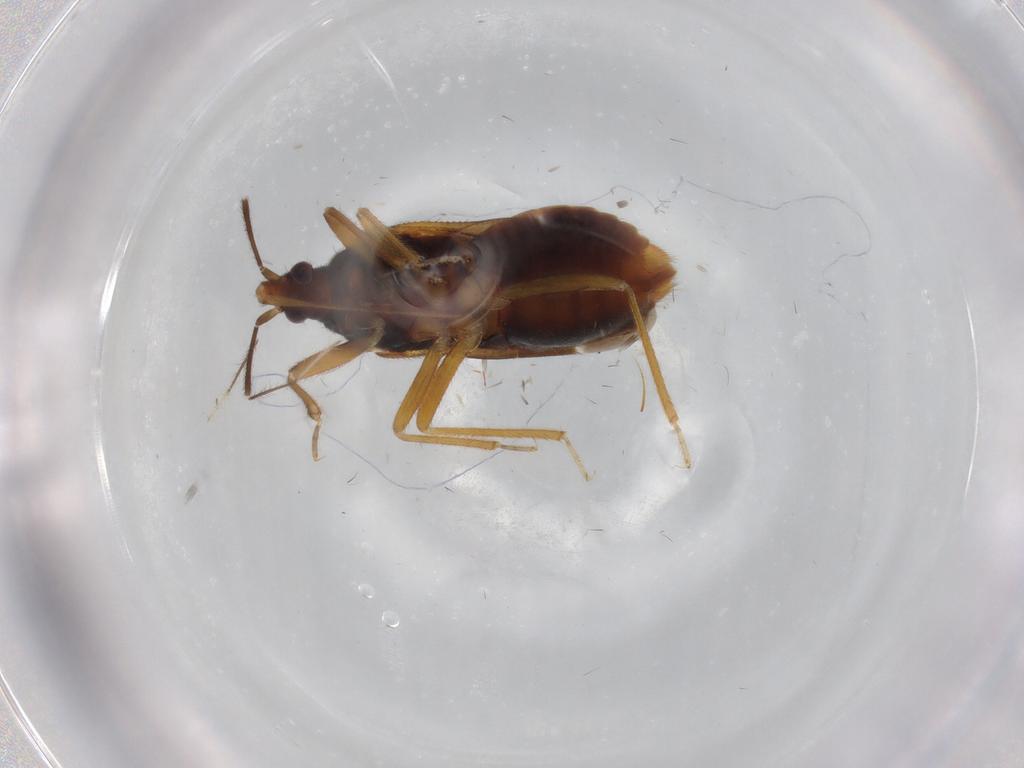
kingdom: Animalia
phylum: Arthropoda
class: Insecta
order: Hemiptera
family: Anthocoridae
